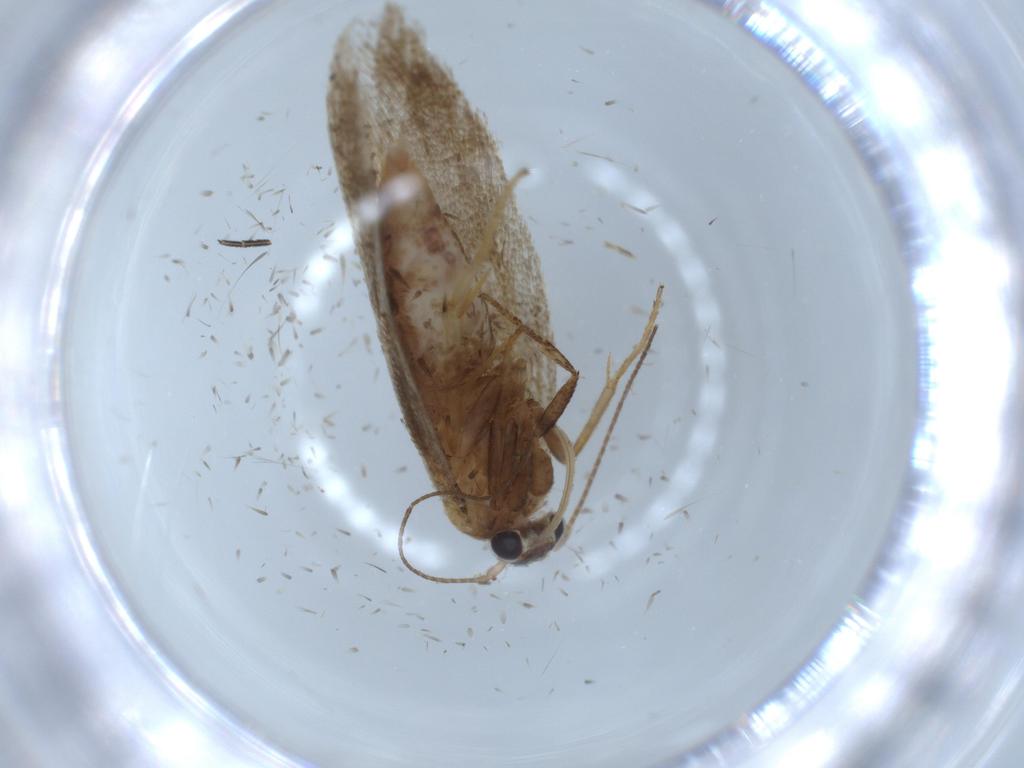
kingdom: Animalia
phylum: Arthropoda
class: Insecta
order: Lepidoptera
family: Oecophoridae
